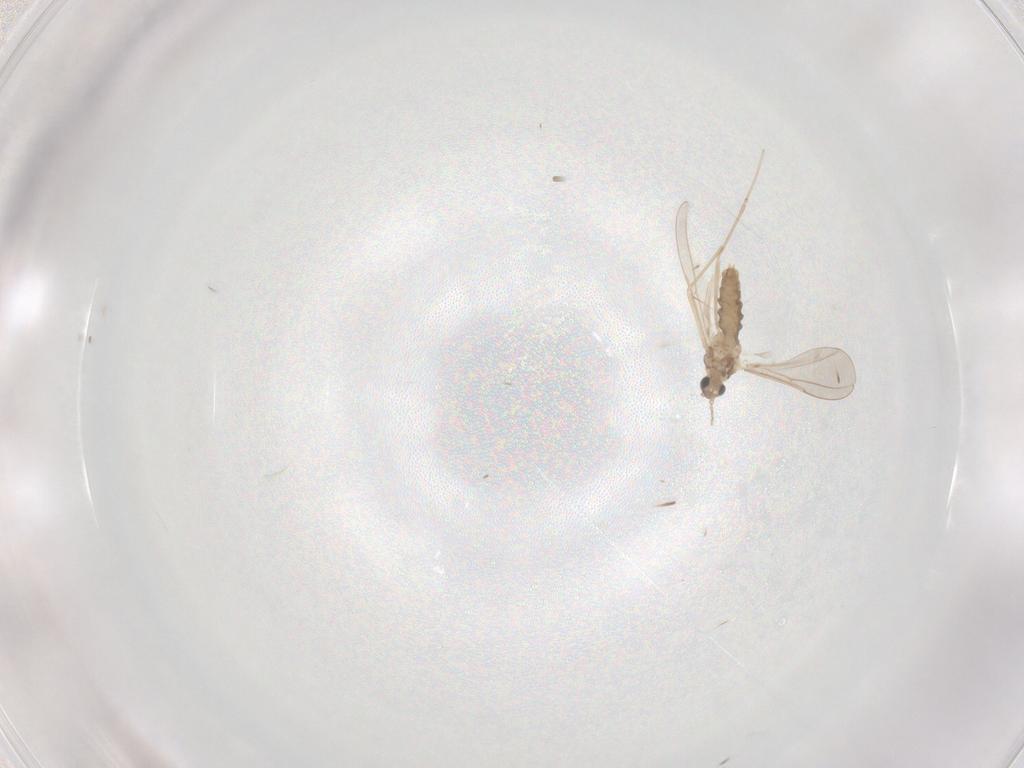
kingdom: Animalia
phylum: Arthropoda
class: Insecta
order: Diptera
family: Cecidomyiidae
